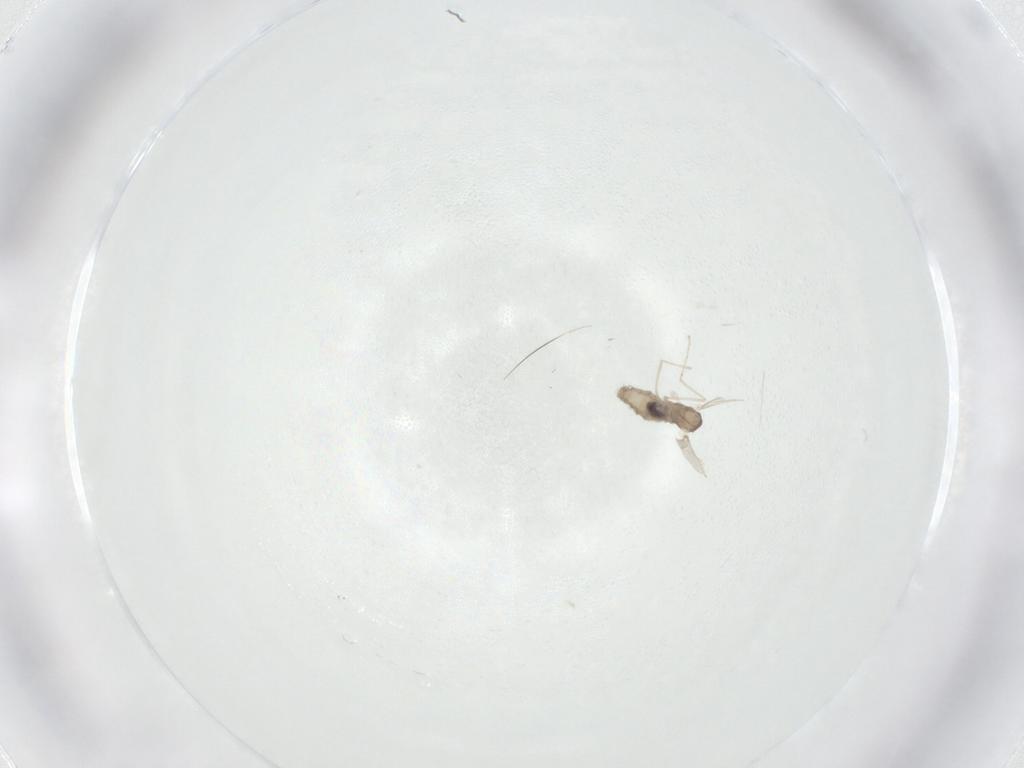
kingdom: Animalia
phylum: Arthropoda
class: Insecta
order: Diptera
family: Cecidomyiidae
